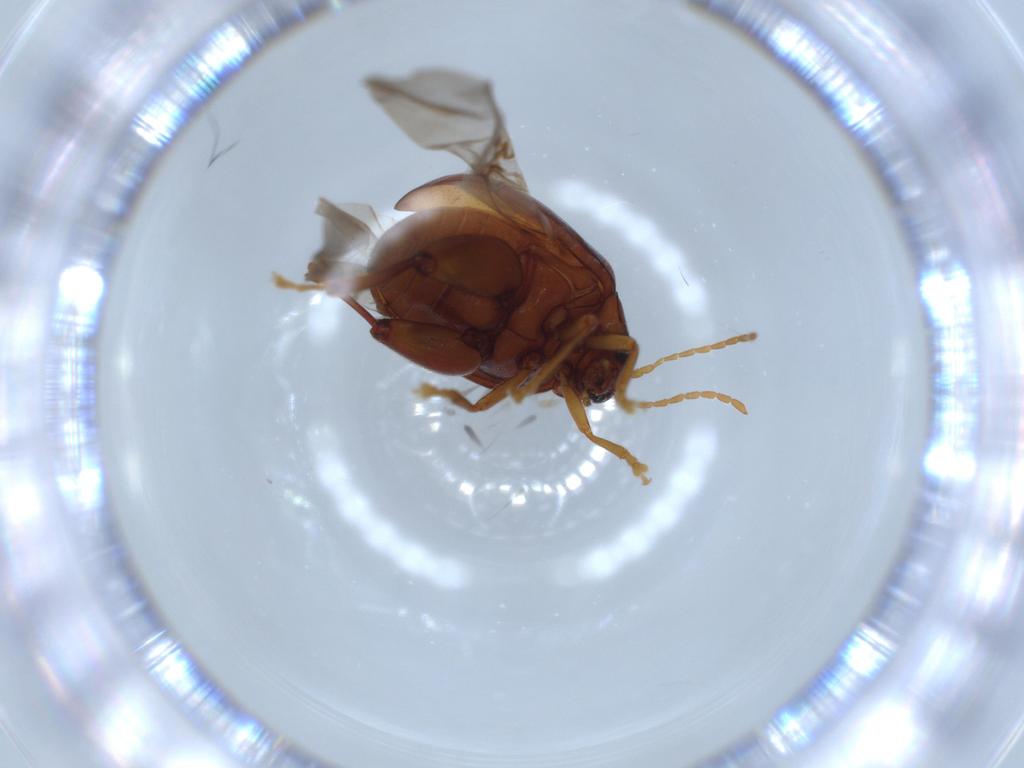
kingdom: Animalia
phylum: Arthropoda
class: Insecta
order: Coleoptera
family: Chrysomelidae
